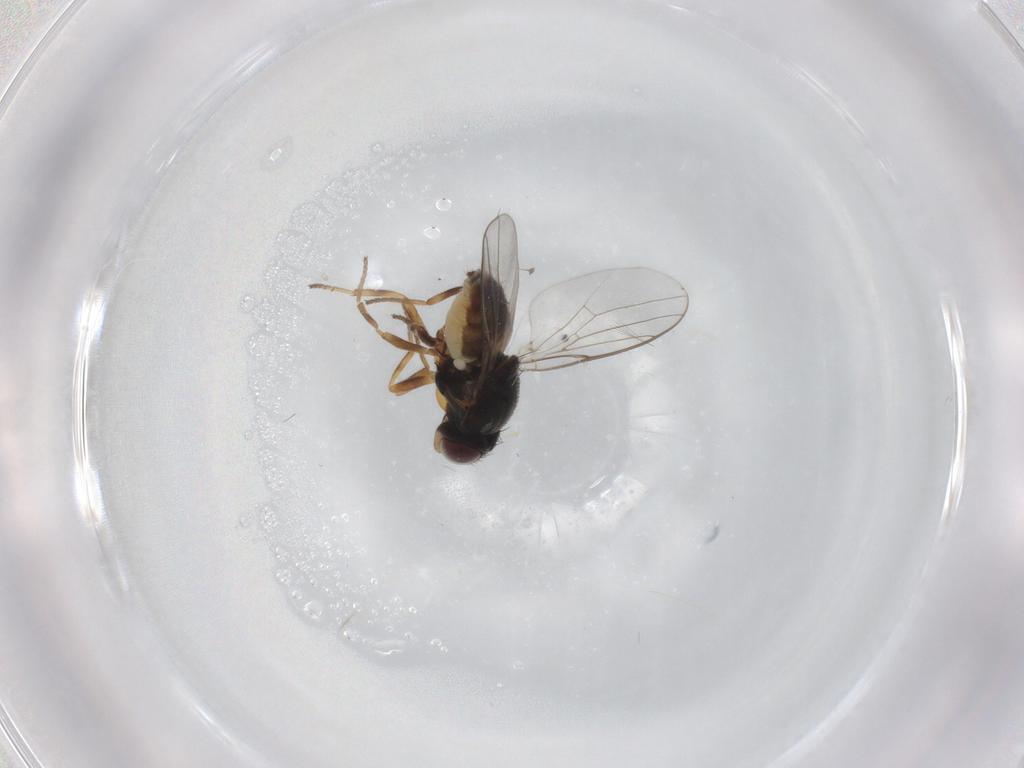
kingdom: Animalia
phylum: Arthropoda
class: Insecta
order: Diptera
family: Chloropidae
